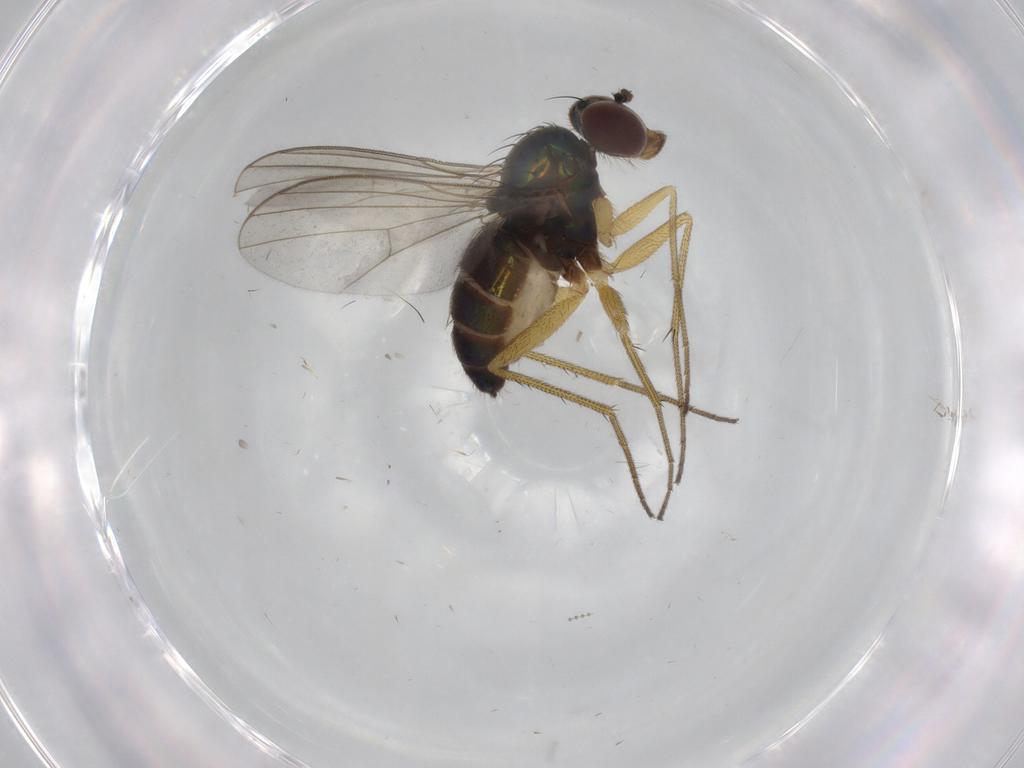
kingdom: Animalia
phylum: Arthropoda
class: Insecta
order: Diptera
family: Dolichopodidae
